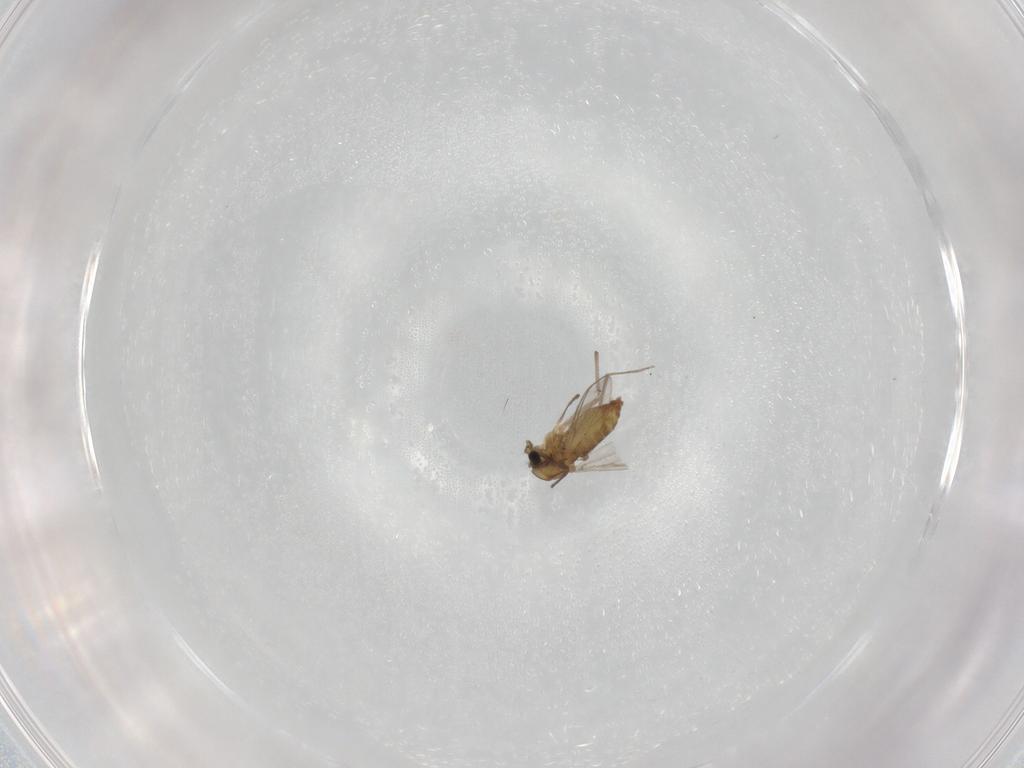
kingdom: Animalia
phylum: Arthropoda
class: Insecta
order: Diptera
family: Chironomidae
